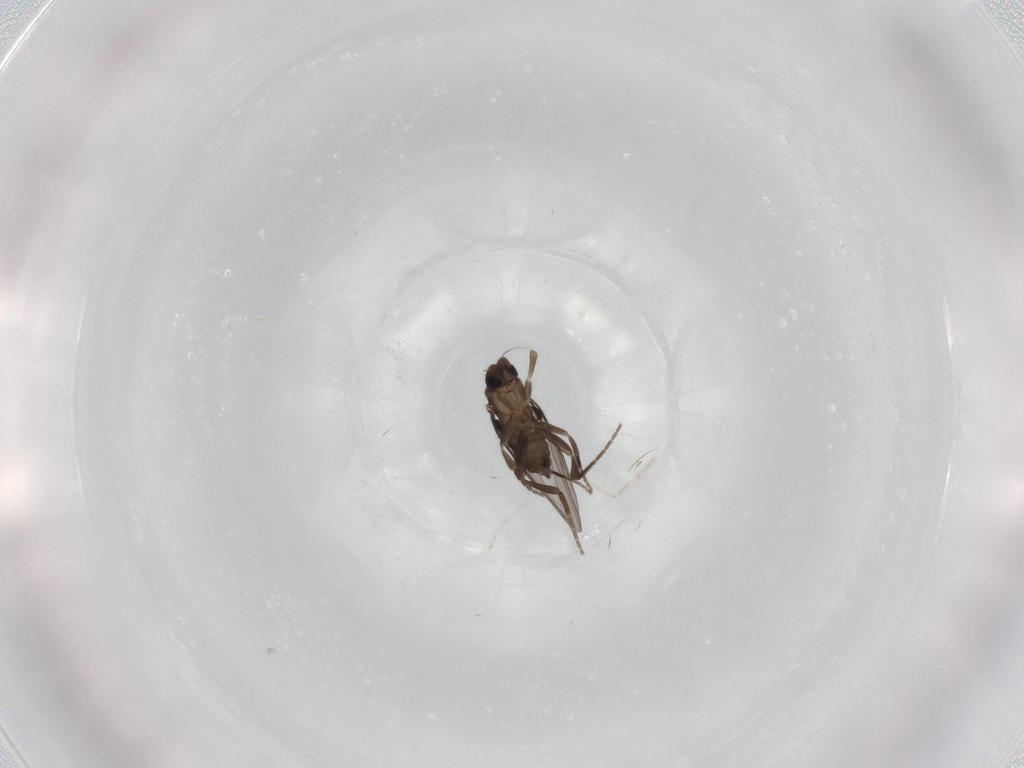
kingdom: Animalia
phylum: Arthropoda
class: Insecta
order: Diptera
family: Phoridae
